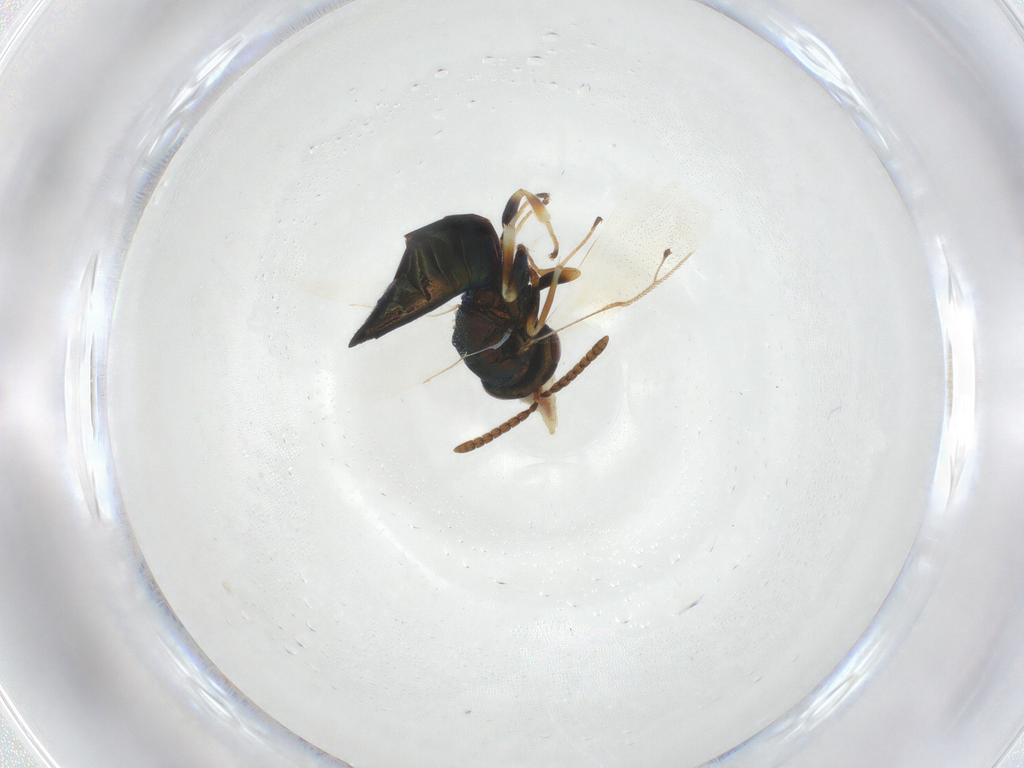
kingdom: Animalia
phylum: Arthropoda
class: Insecta
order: Hymenoptera
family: Pteromalidae
